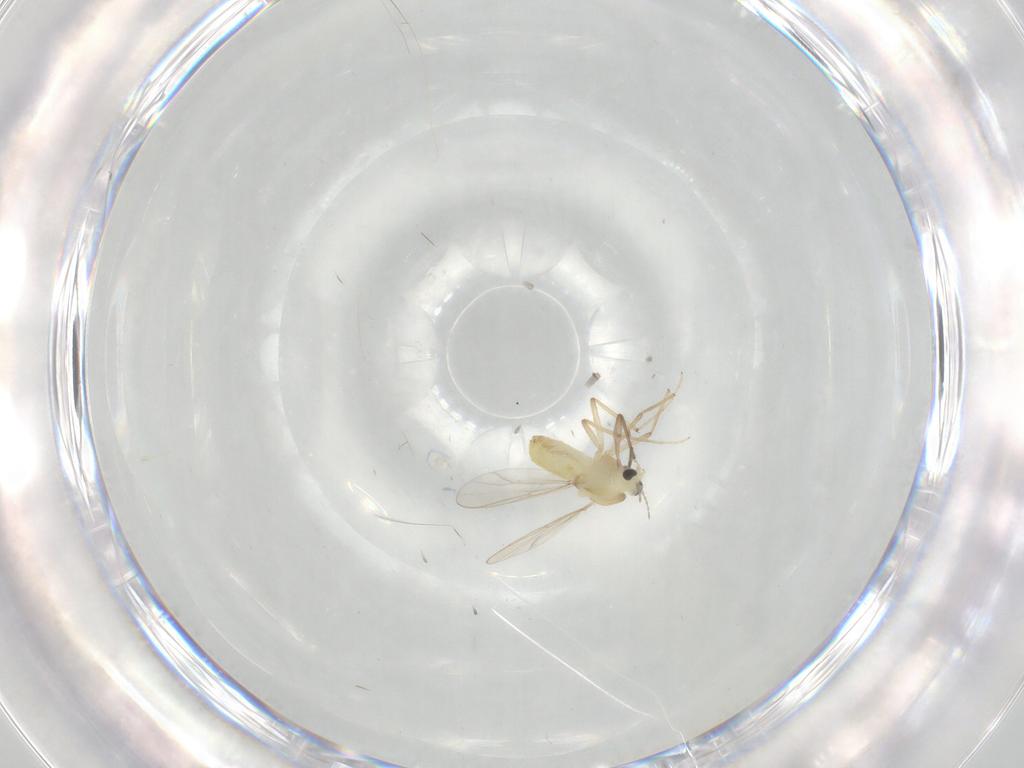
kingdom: Animalia
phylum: Arthropoda
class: Insecta
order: Diptera
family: Chironomidae
